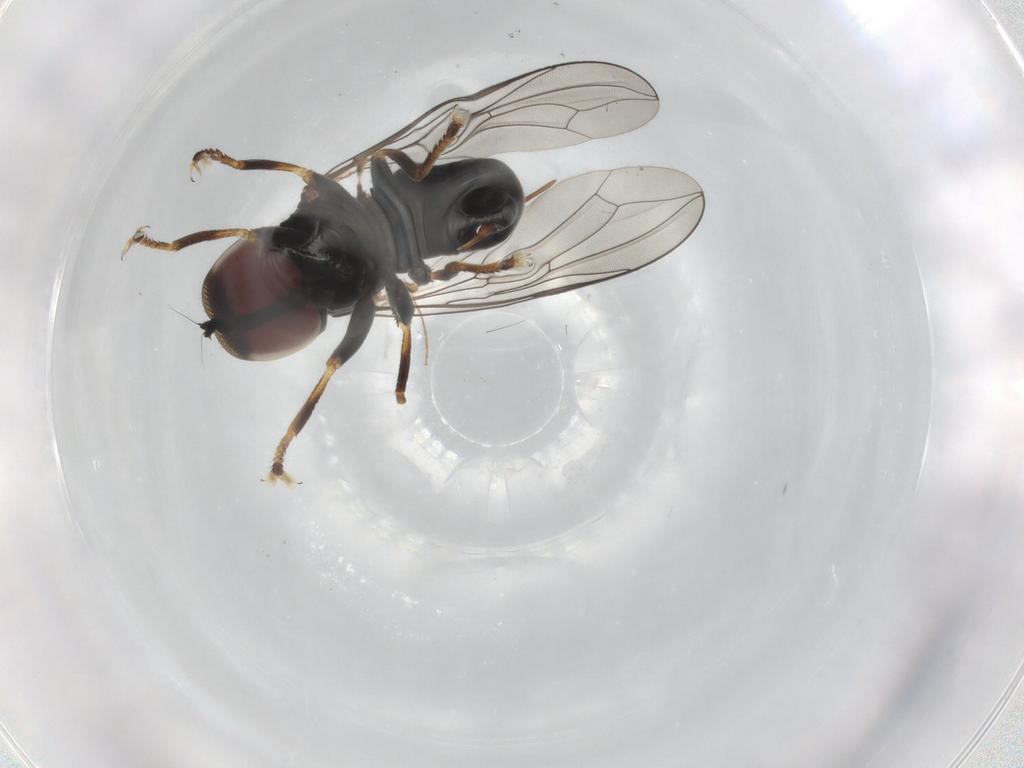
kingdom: Animalia
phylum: Arthropoda
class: Insecta
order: Diptera
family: Pipunculidae
